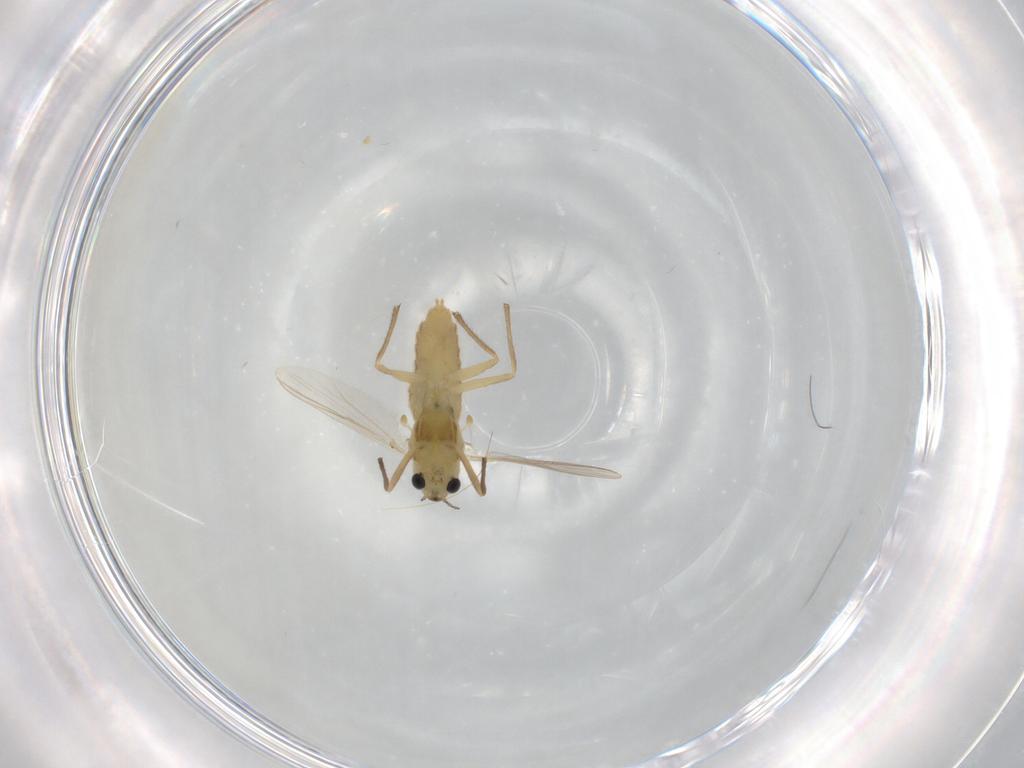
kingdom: Animalia
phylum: Arthropoda
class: Insecta
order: Diptera
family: Chironomidae
